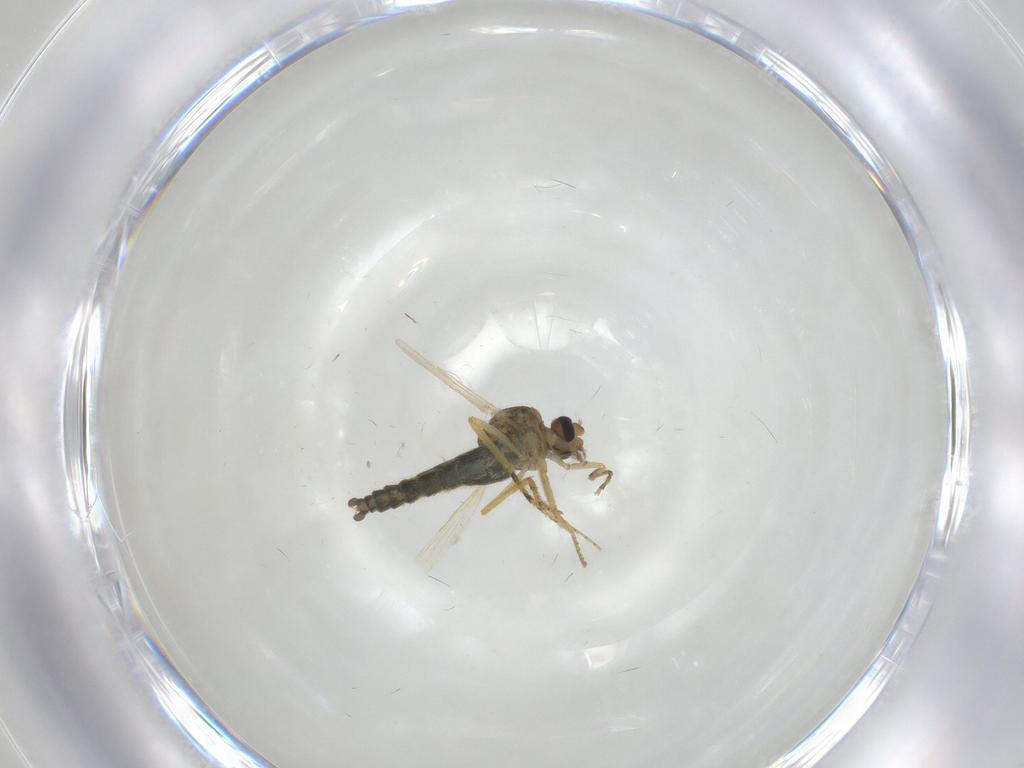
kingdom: Animalia
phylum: Arthropoda
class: Insecta
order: Diptera
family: Ceratopogonidae
